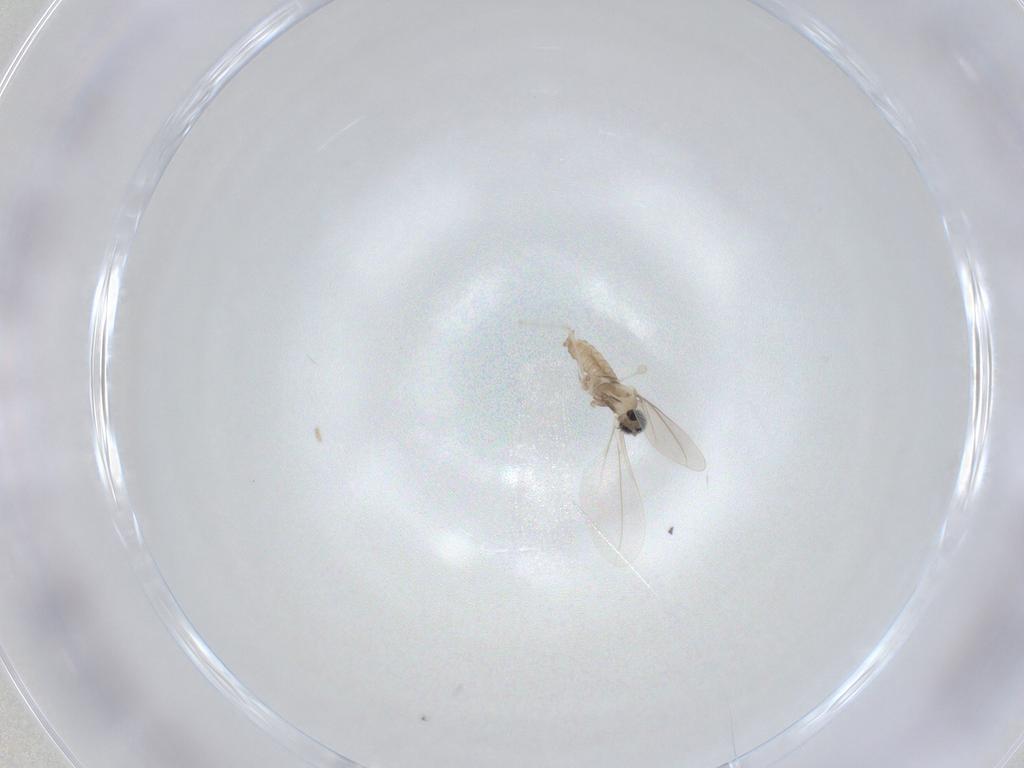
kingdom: Animalia
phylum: Arthropoda
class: Insecta
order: Diptera
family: Cecidomyiidae
